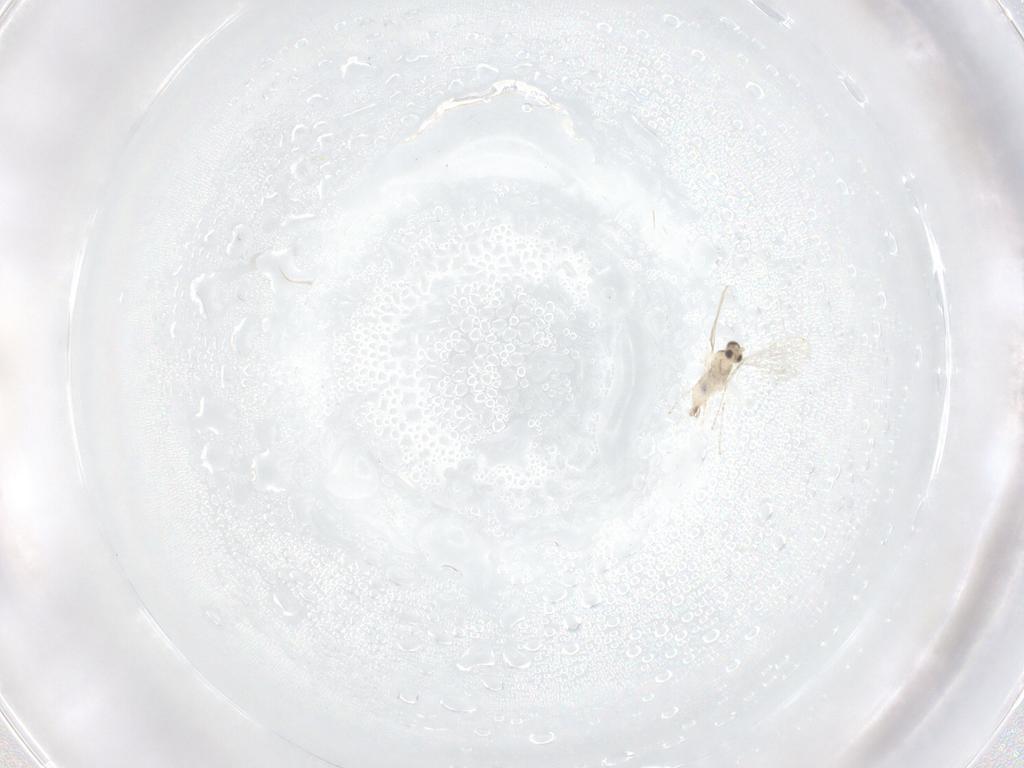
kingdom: Animalia
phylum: Arthropoda
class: Insecta
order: Diptera
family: Cecidomyiidae
